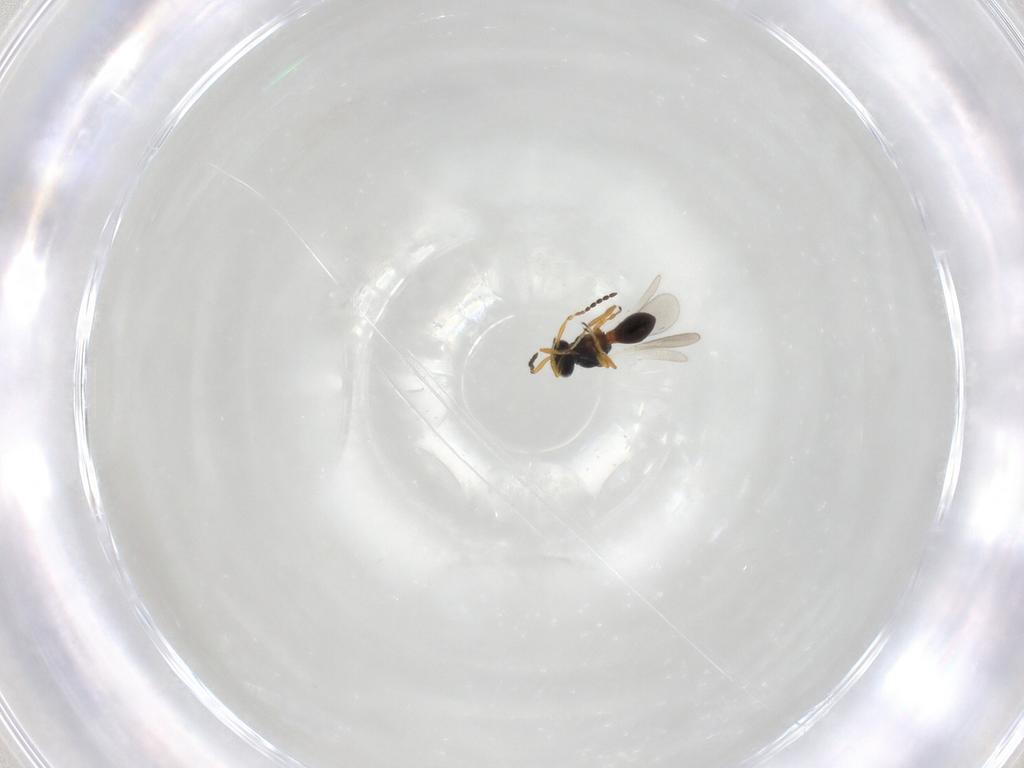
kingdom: Animalia
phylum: Arthropoda
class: Insecta
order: Hymenoptera
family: Platygastridae
